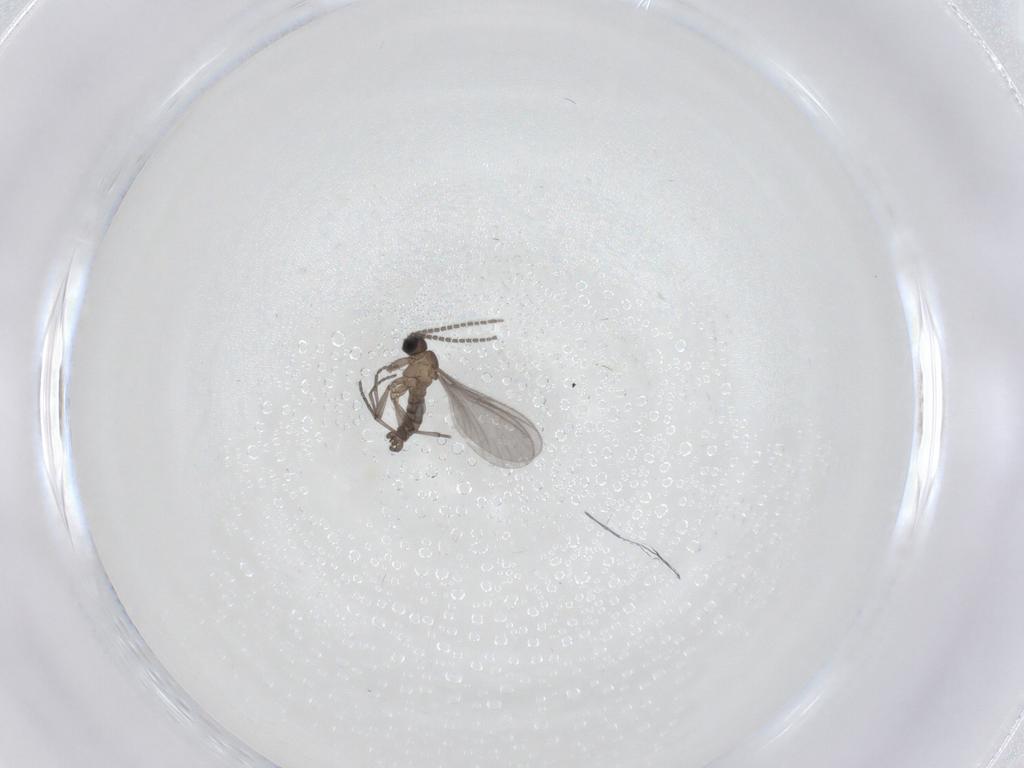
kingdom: Animalia
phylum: Arthropoda
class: Insecta
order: Diptera
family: Sciaridae
